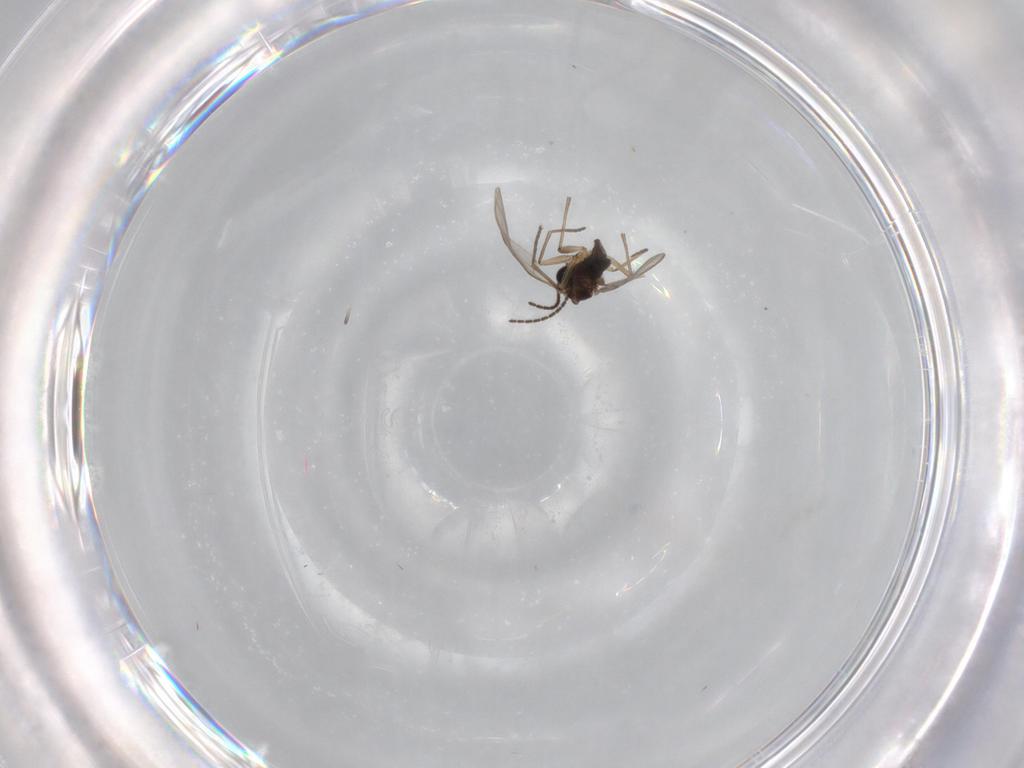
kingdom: Animalia
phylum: Arthropoda
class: Insecta
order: Diptera
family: Sciaridae
